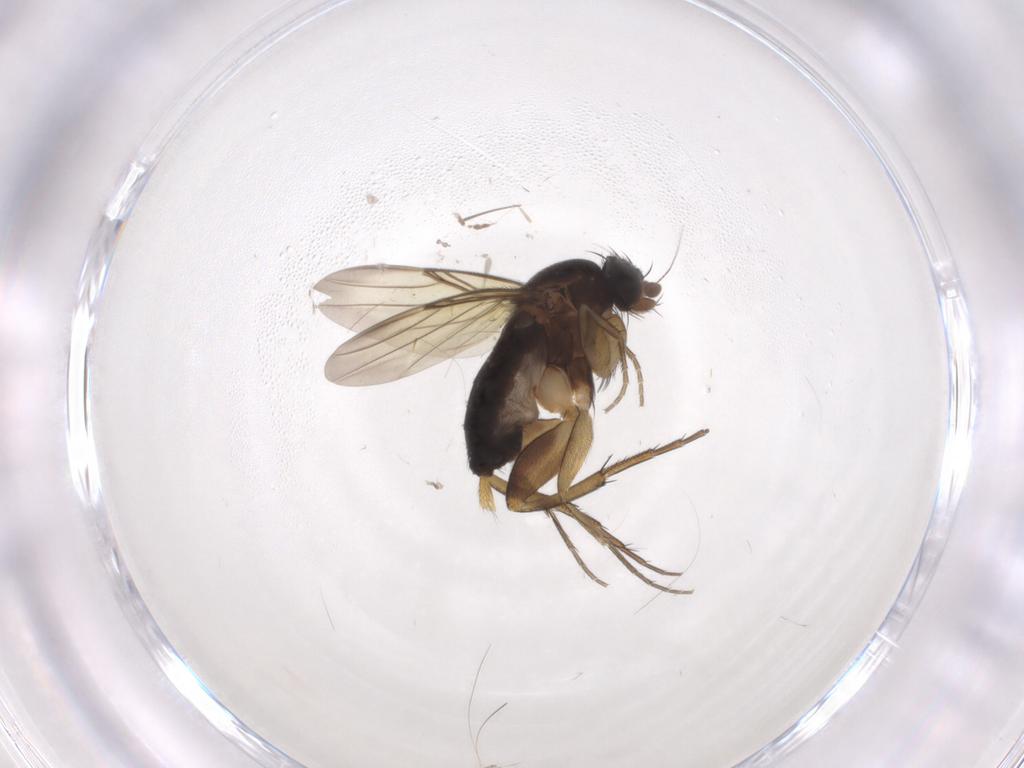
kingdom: Animalia
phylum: Arthropoda
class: Insecta
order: Diptera
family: Phoridae
